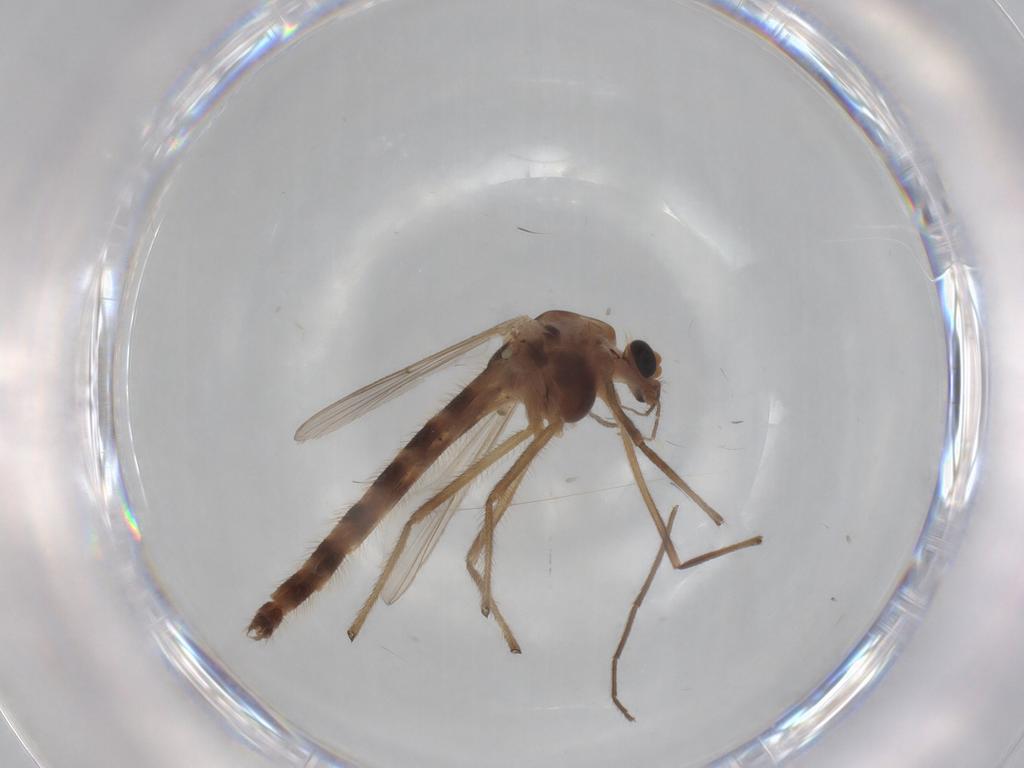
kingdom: Animalia
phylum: Arthropoda
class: Insecta
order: Diptera
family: Chironomidae
